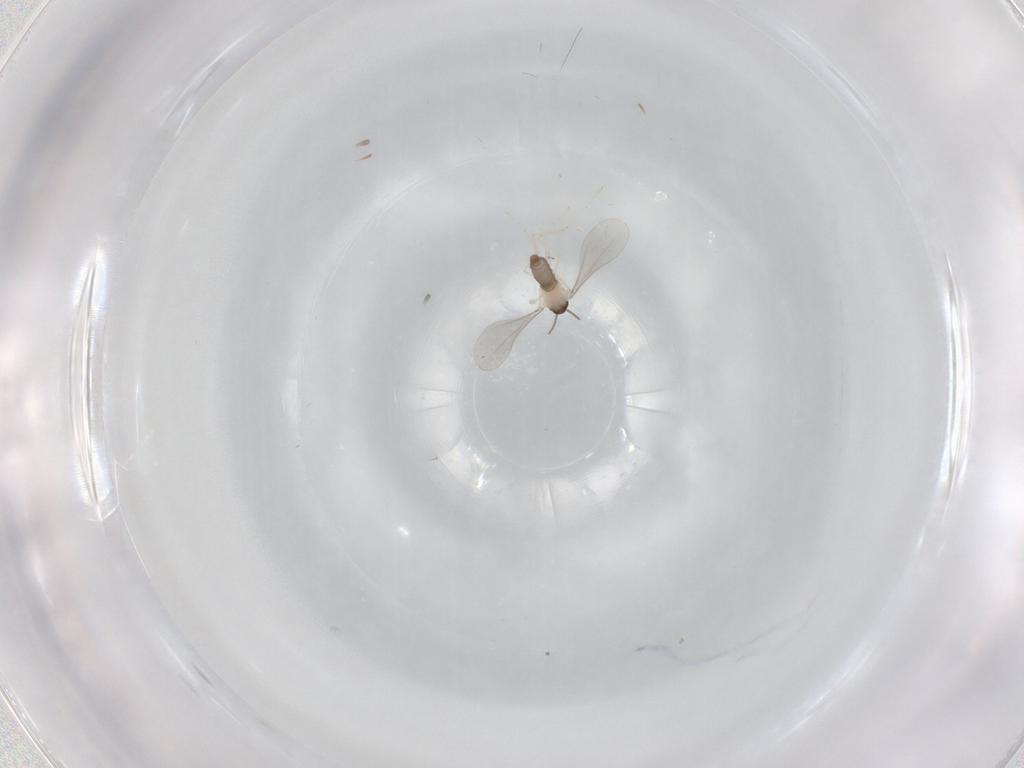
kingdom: Animalia
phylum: Arthropoda
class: Insecta
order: Diptera
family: Cecidomyiidae
